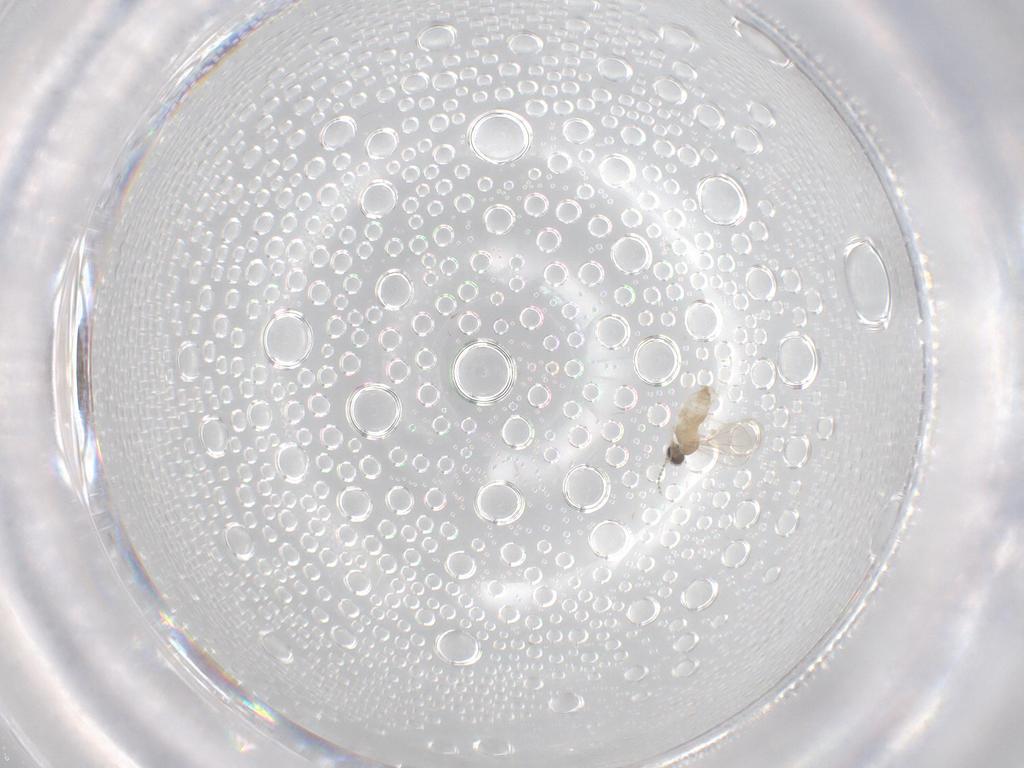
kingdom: Animalia
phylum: Arthropoda
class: Insecta
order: Diptera
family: Cecidomyiidae
